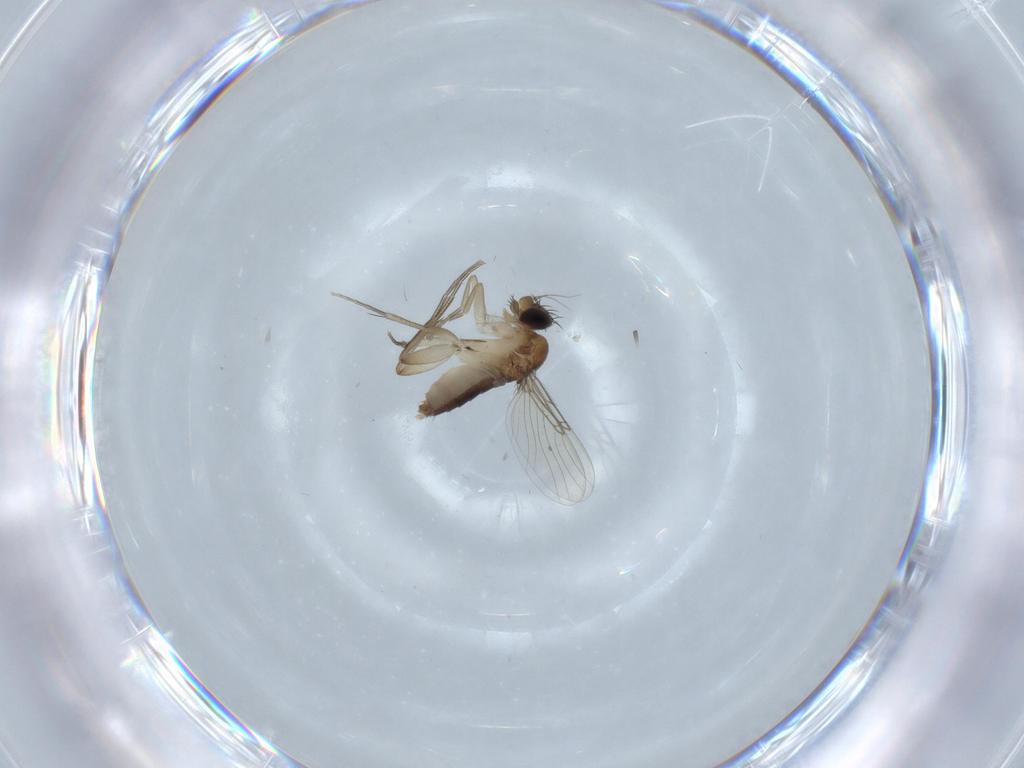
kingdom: Animalia
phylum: Arthropoda
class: Insecta
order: Diptera
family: Phoridae
